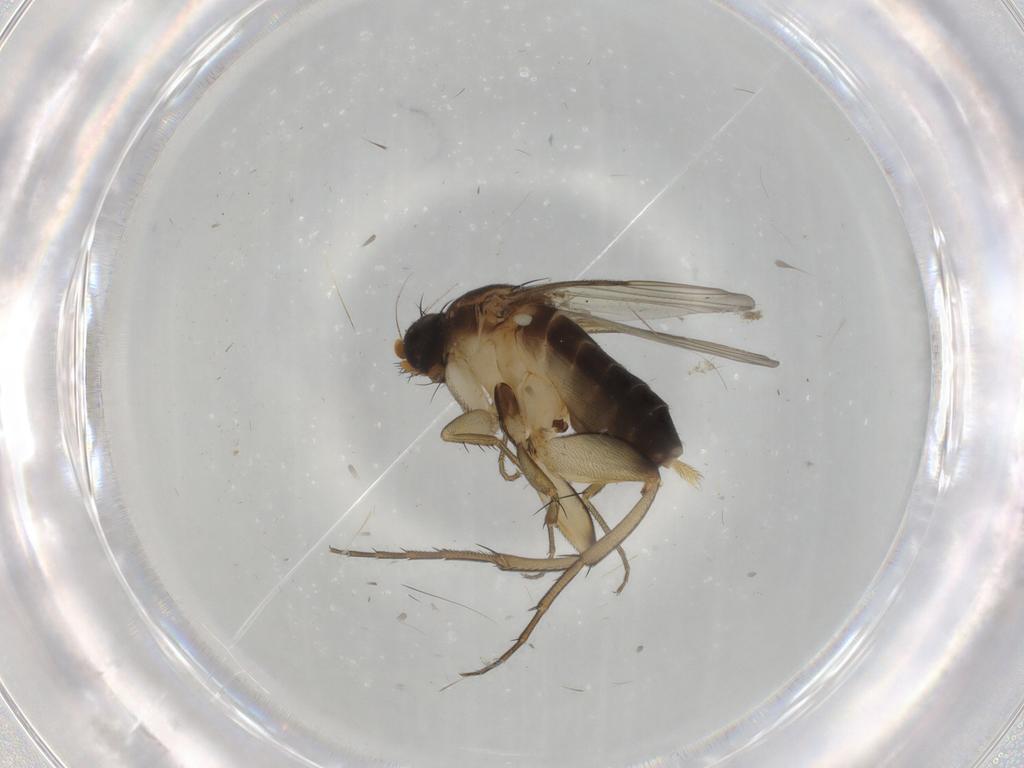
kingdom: Animalia
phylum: Arthropoda
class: Insecta
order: Diptera
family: Phoridae
